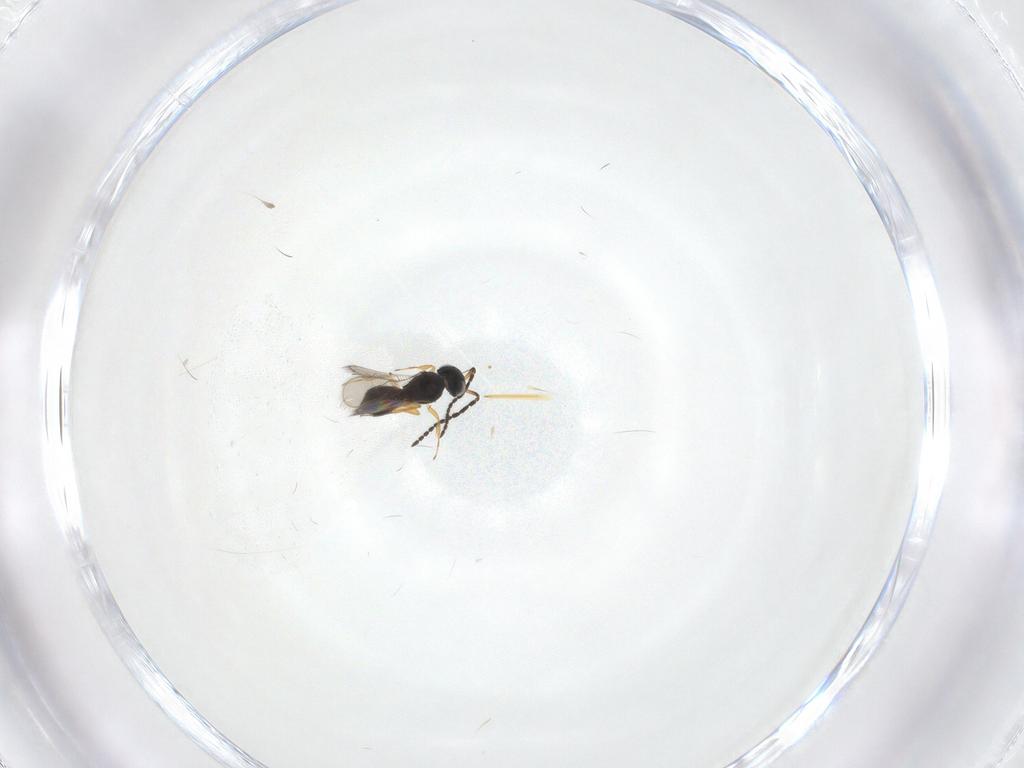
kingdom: Animalia
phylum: Arthropoda
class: Insecta
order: Hymenoptera
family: Scelionidae
